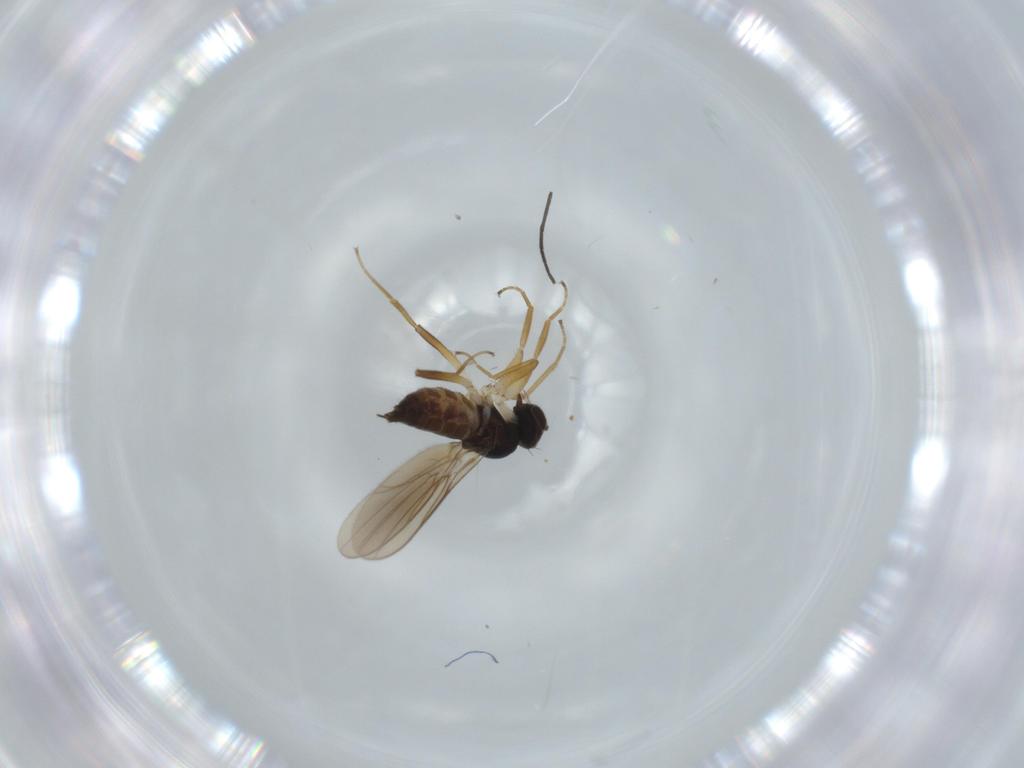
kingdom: Animalia
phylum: Arthropoda
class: Insecta
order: Diptera
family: Hybotidae
